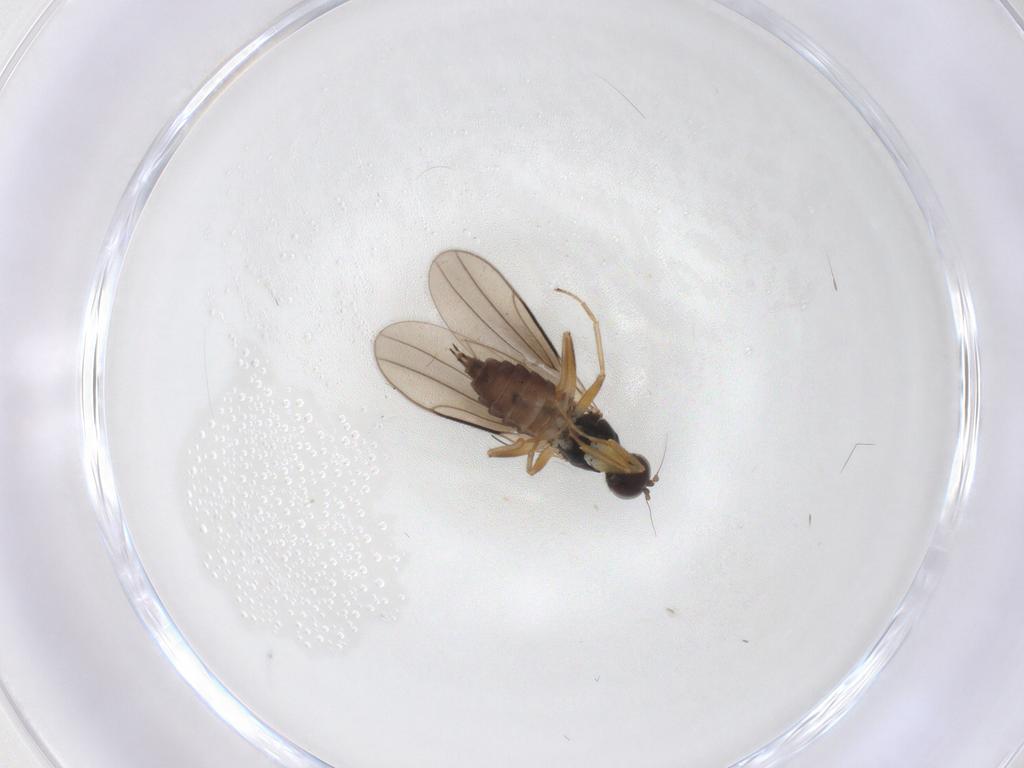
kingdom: Animalia
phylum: Arthropoda
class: Insecta
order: Diptera
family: Hybotidae
